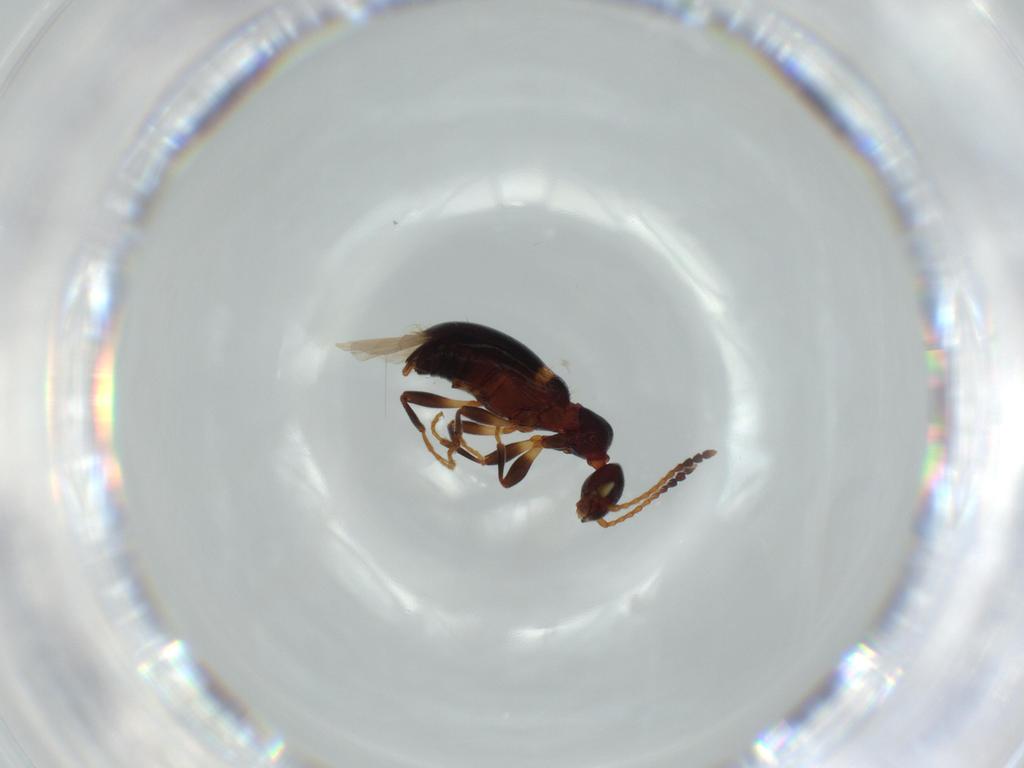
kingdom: Animalia
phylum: Arthropoda
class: Insecta
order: Coleoptera
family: Anthicidae
